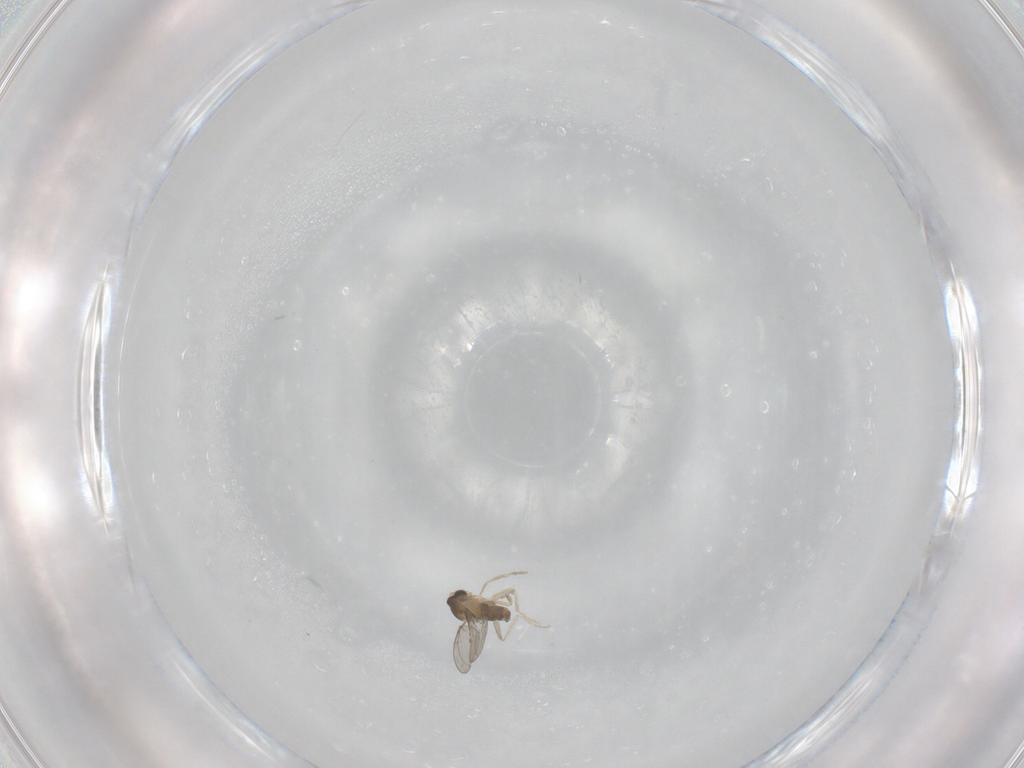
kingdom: Animalia
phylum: Arthropoda
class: Insecta
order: Diptera
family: Cecidomyiidae
